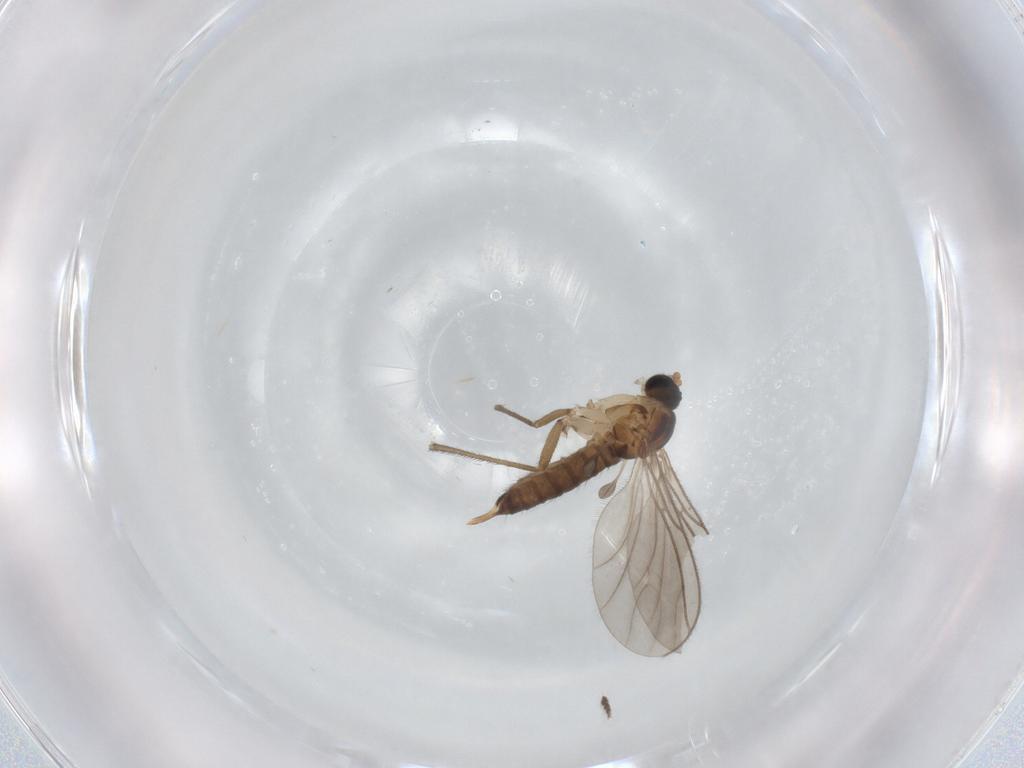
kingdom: Animalia
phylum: Arthropoda
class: Insecta
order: Diptera
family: Sciaridae
